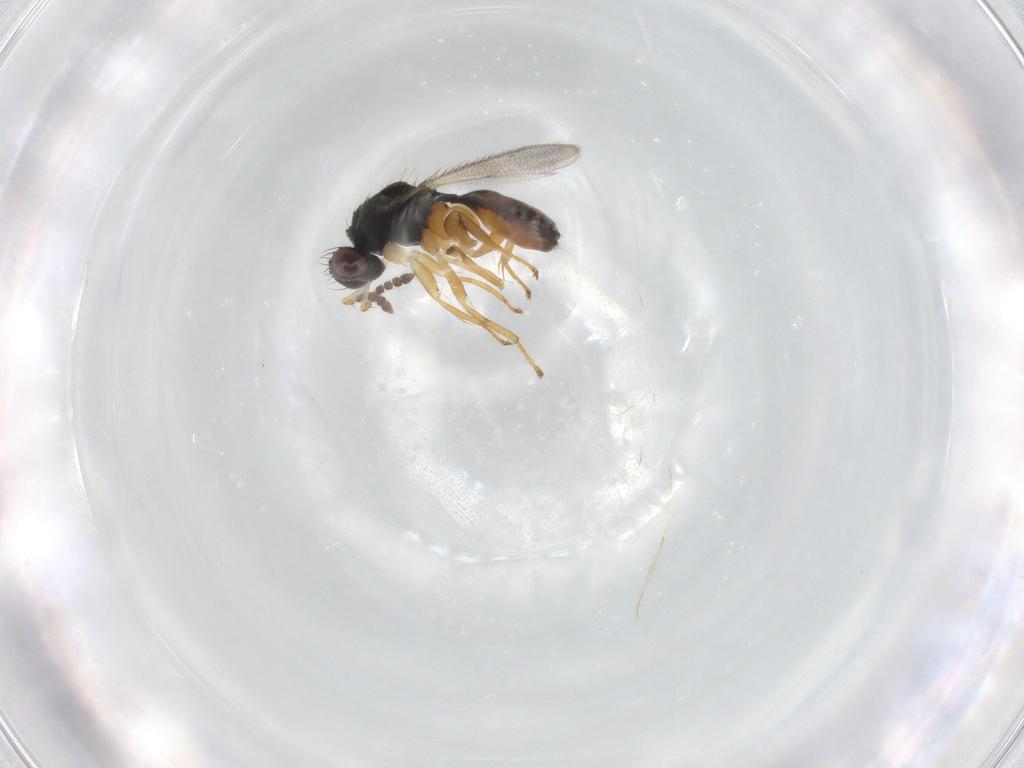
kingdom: Animalia
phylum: Arthropoda
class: Insecta
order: Hymenoptera
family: Eulophidae
